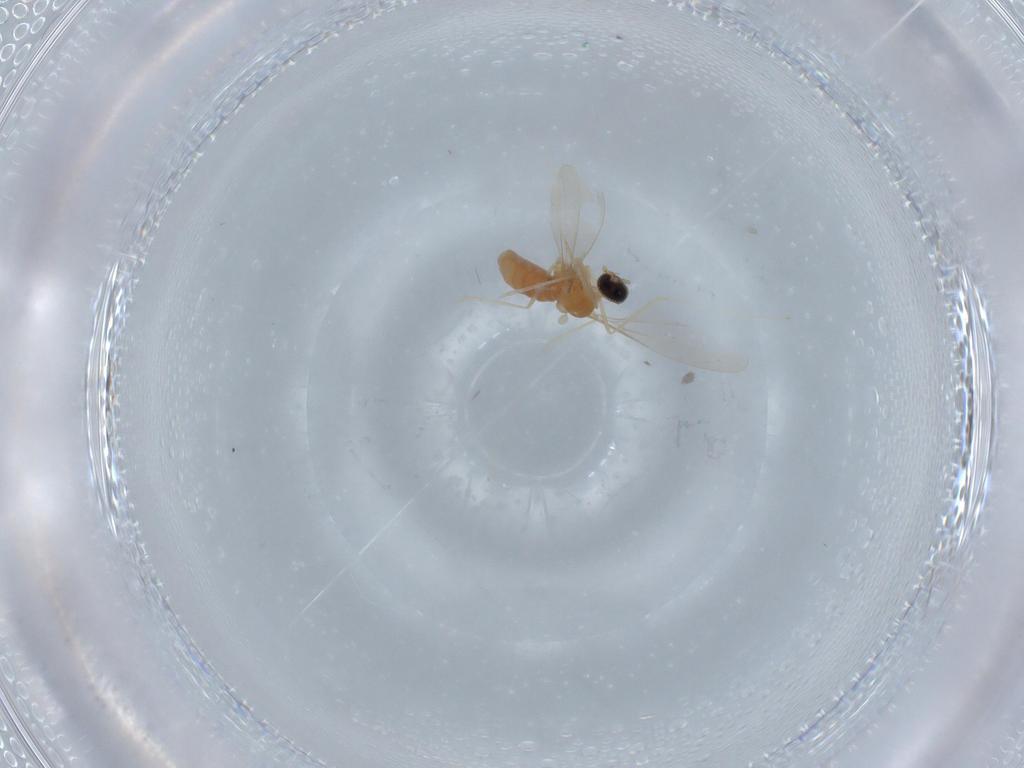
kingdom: Animalia
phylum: Arthropoda
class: Insecta
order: Diptera
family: Cecidomyiidae
